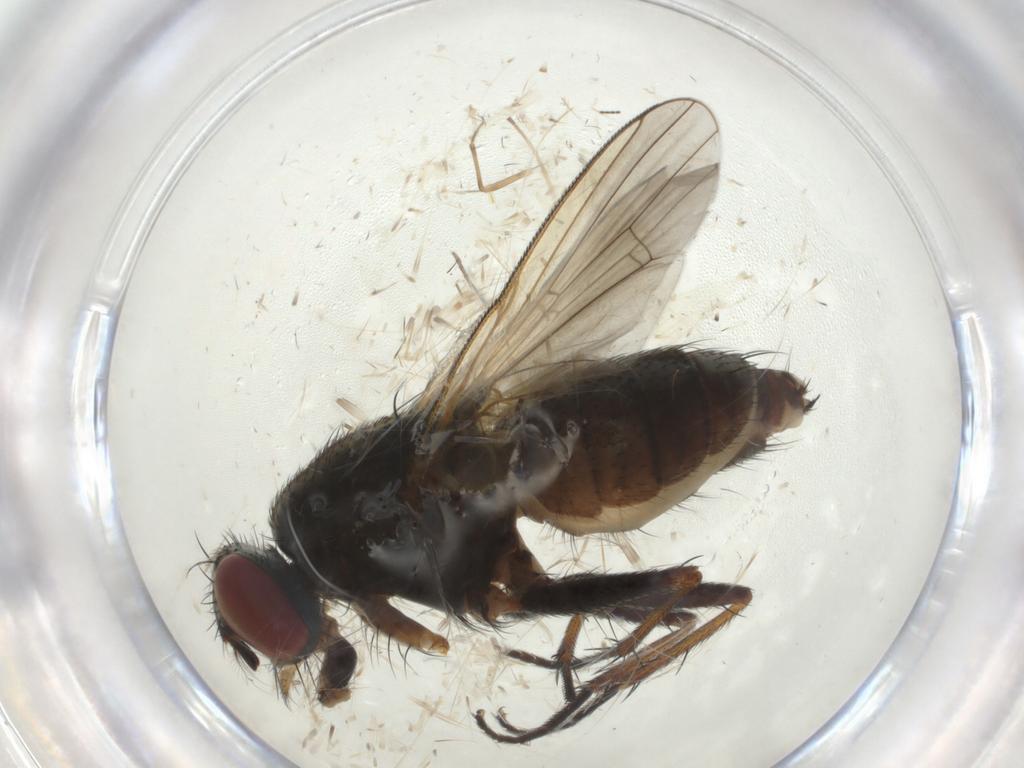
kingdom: Animalia
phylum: Arthropoda
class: Insecta
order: Diptera
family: Muscidae
